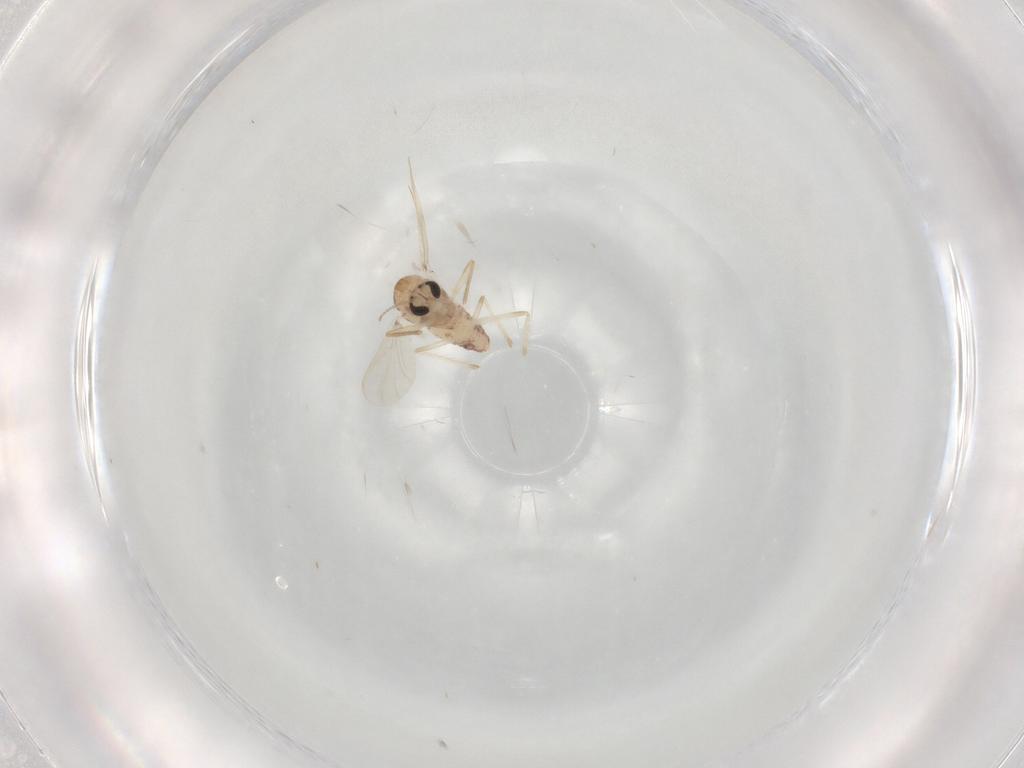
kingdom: Animalia
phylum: Arthropoda
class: Insecta
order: Diptera
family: Chironomidae
